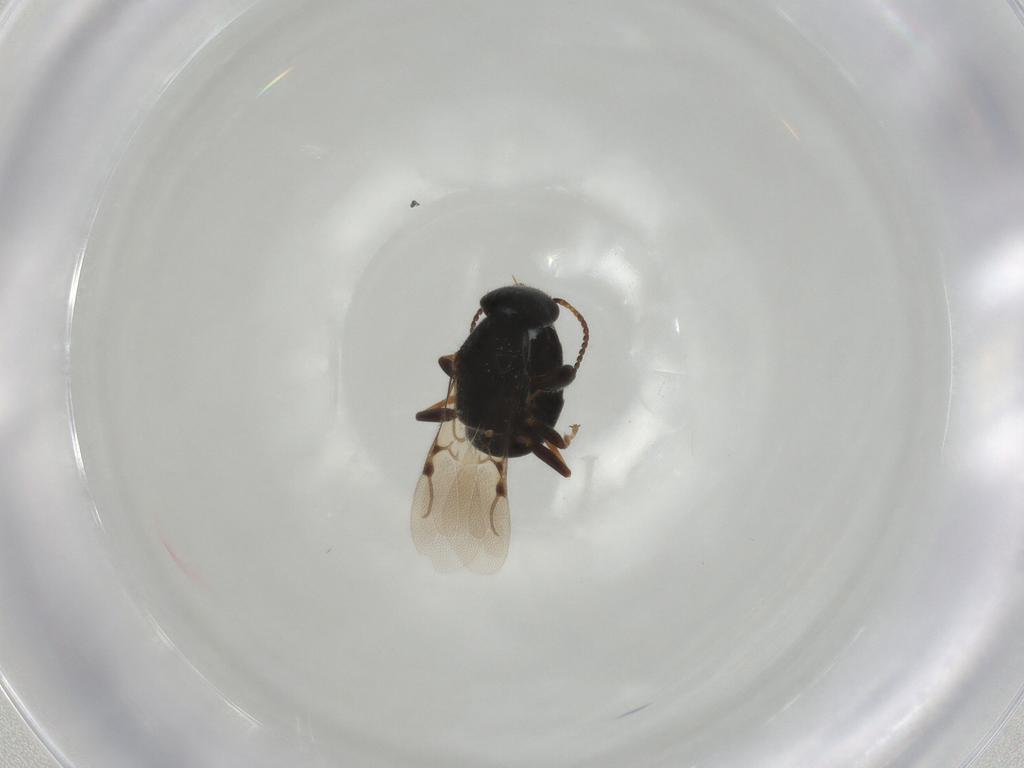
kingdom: Animalia
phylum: Arthropoda
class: Insecta
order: Hymenoptera
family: Bethylidae
